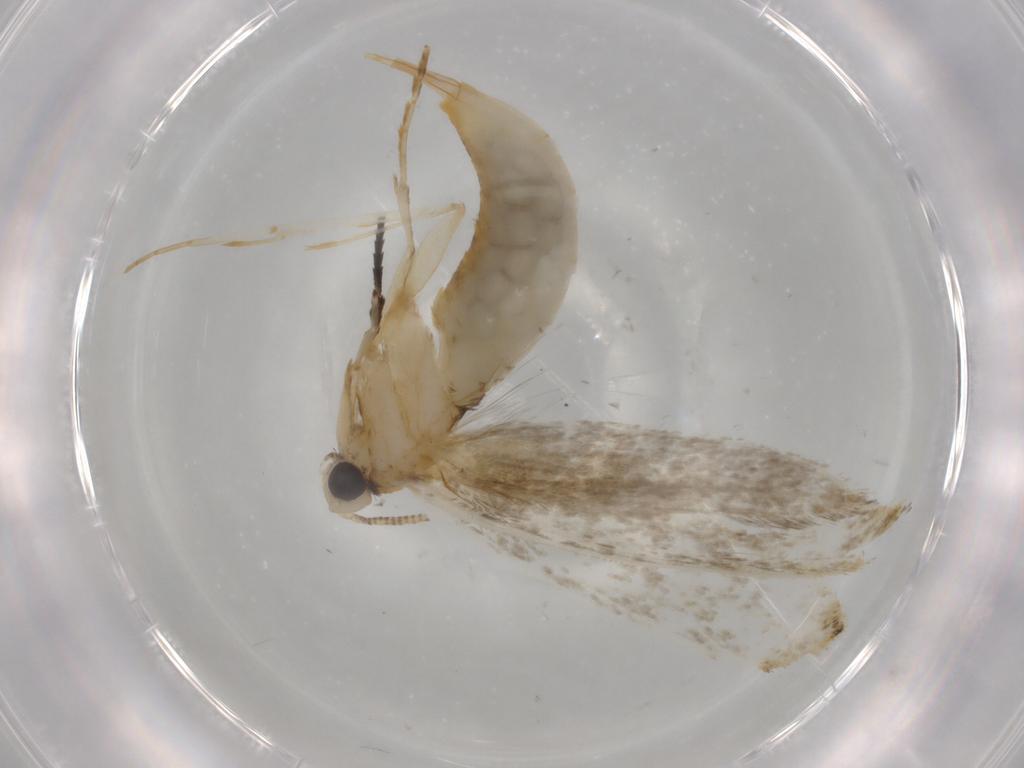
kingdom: Animalia
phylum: Arthropoda
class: Insecta
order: Lepidoptera
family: Tineidae
